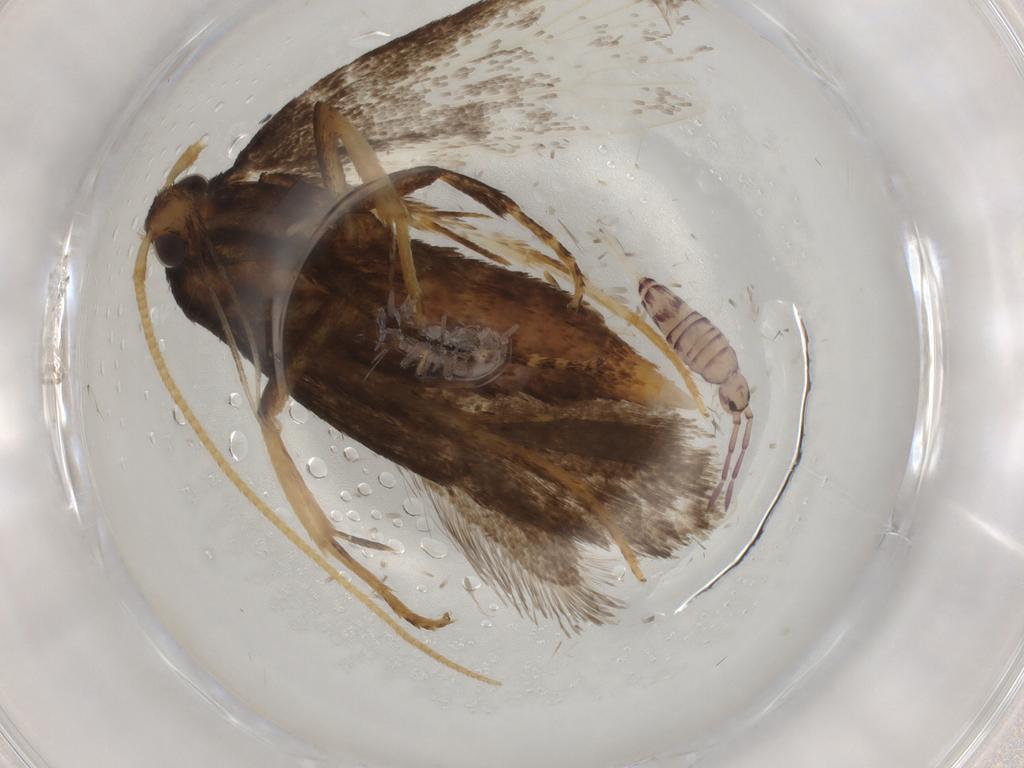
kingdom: Animalia
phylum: Arthropoda
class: Insecta
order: Lepidoptera
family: Lecithoceridae
